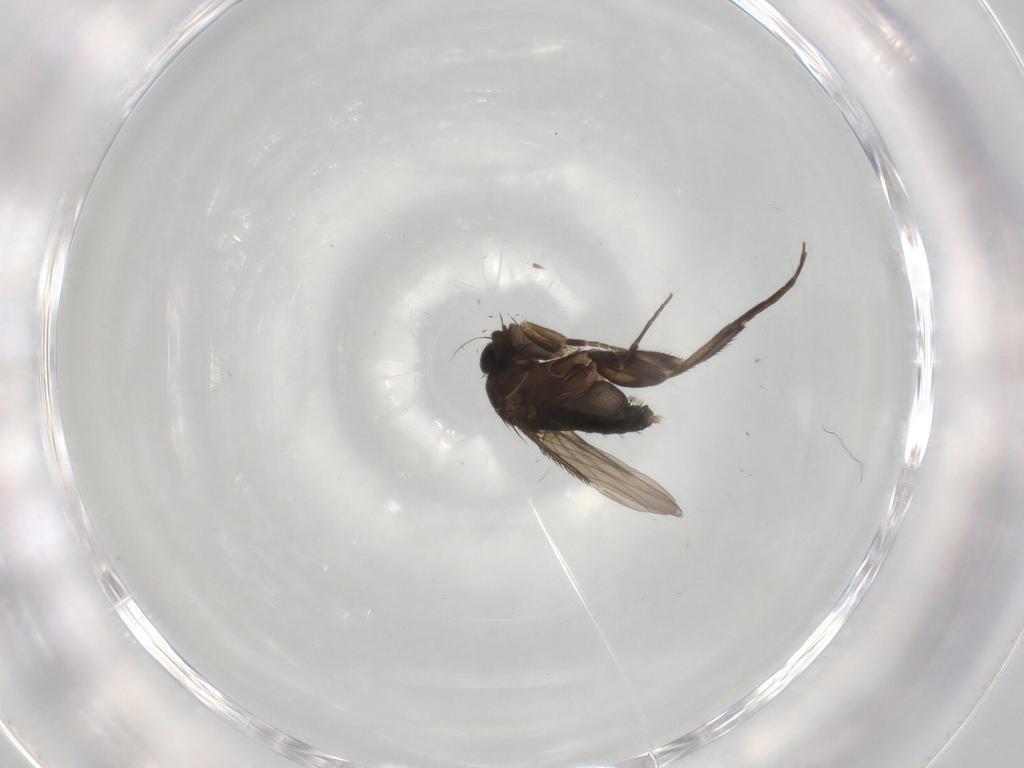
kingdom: Animalia
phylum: Arthropoda
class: Insecta
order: Diptera
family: Phoridae
